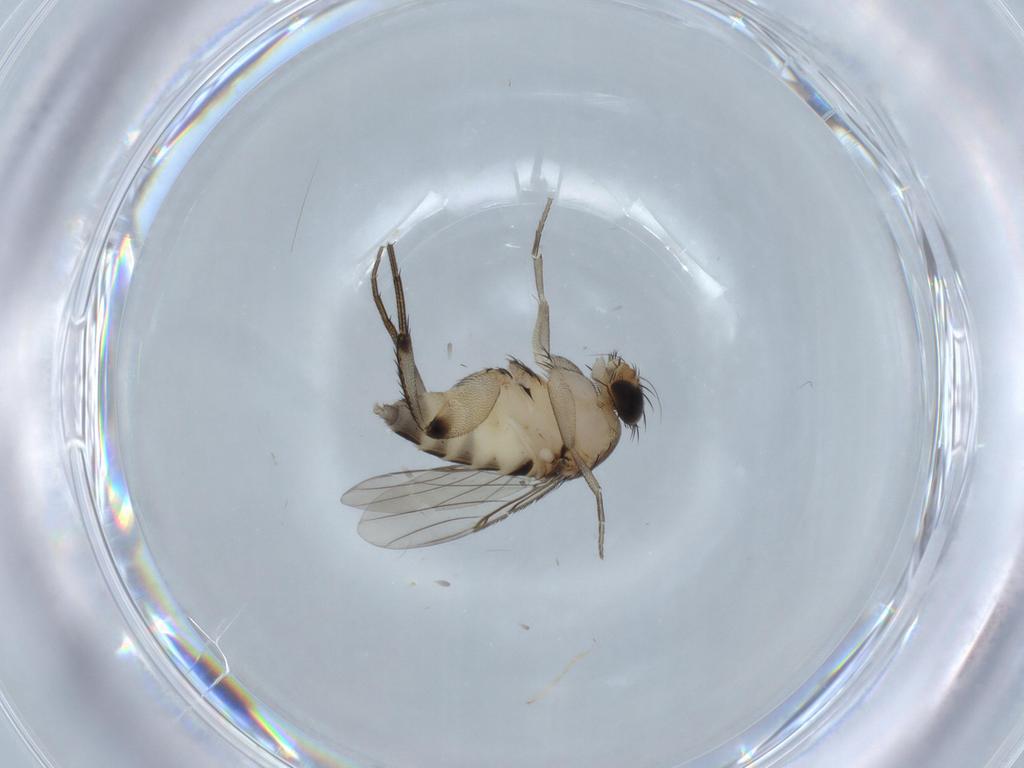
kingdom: Animalia
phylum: Arthropoda
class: Insecta
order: Diptera
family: Phoridae
